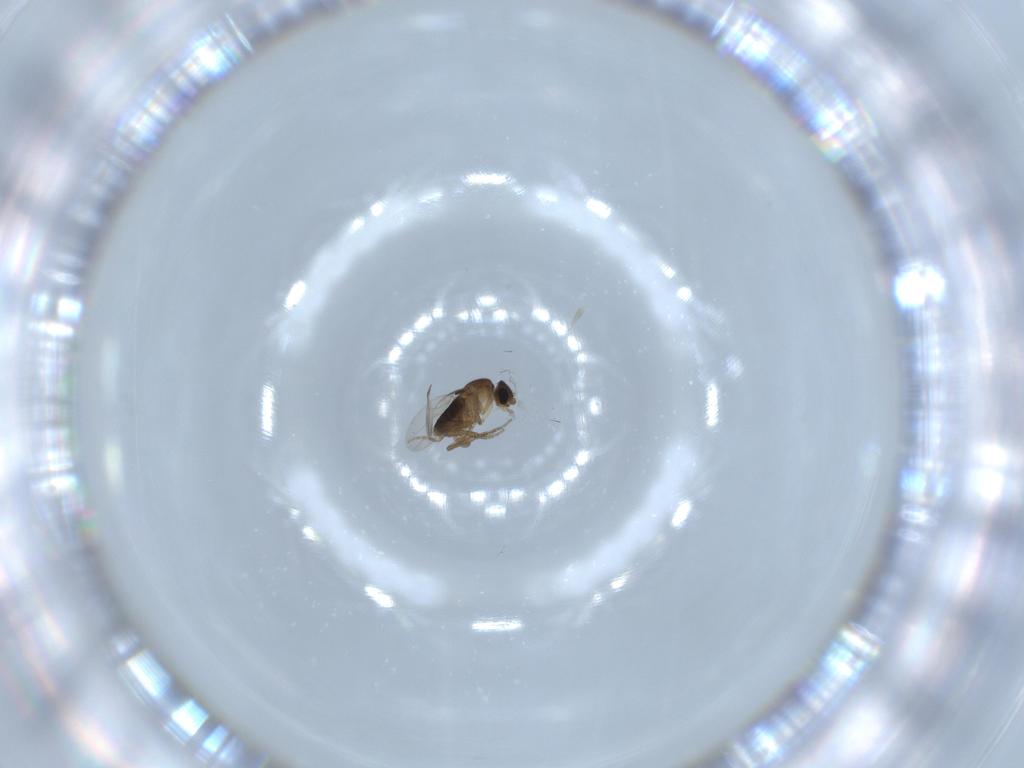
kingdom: Animalia
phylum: Arthropoda
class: Insecta
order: Diptera
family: Phoridae
